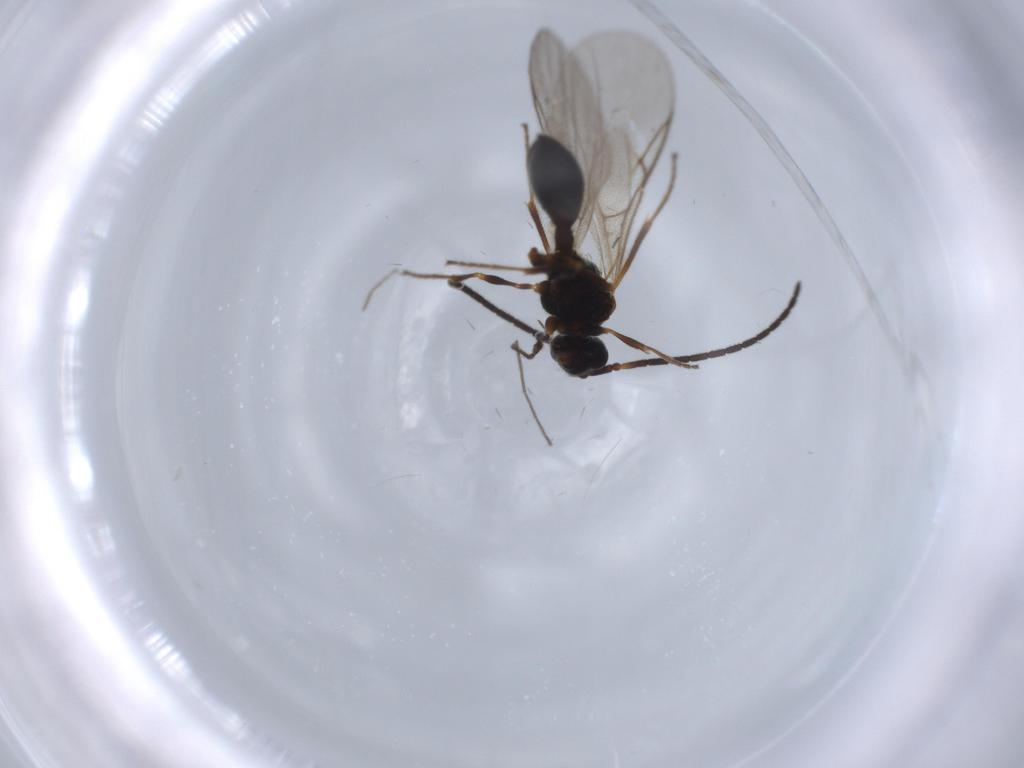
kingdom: Animalia
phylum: Arthropoda
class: Insecta
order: Hymenoptera
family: Diapriidae
